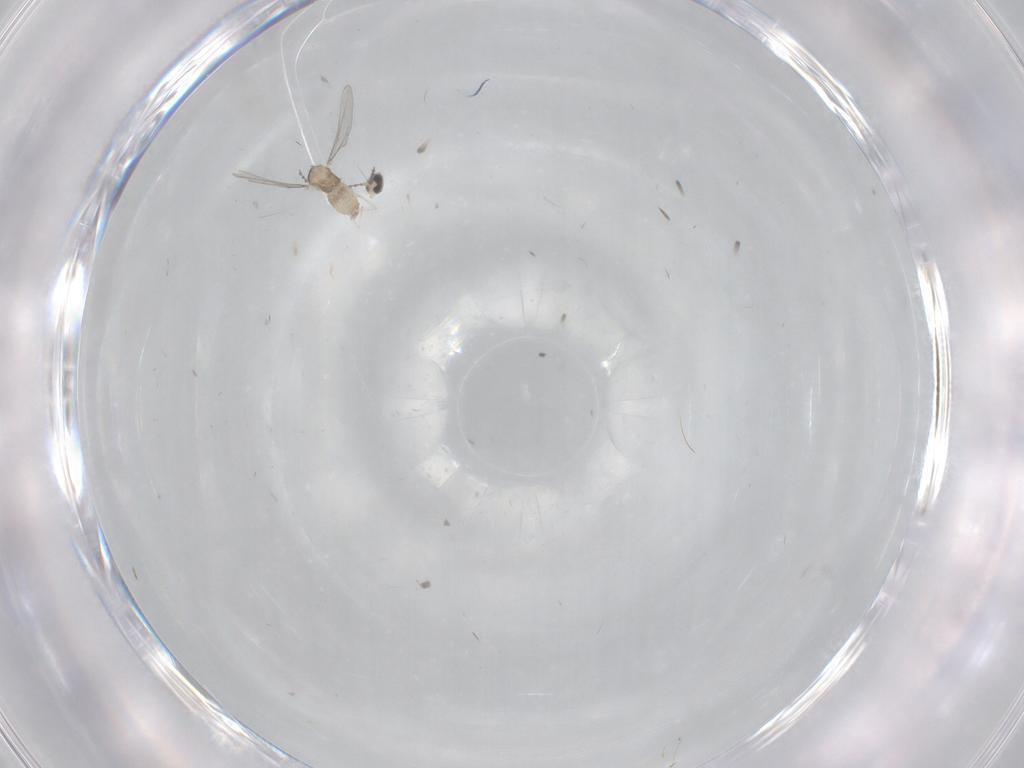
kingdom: Animalia
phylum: Arthropoda
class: Insecta
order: Diptera
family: Cecidomyiidae
